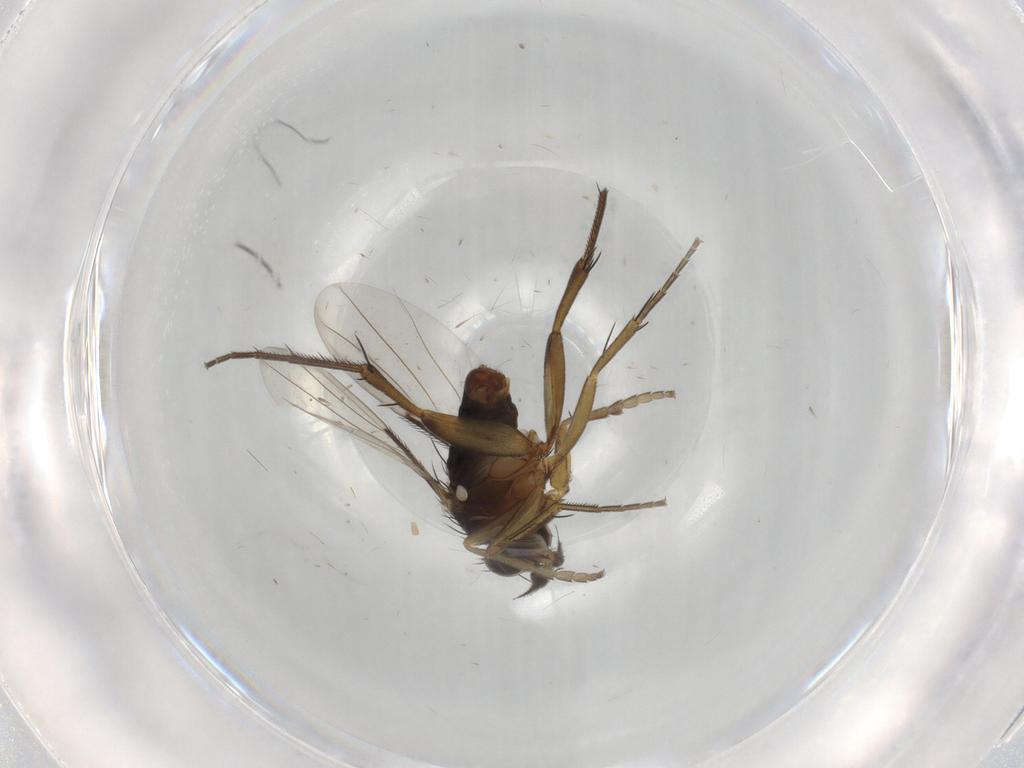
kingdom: Animalia
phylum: Arthropoda
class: Insecta
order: Diptera
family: Phoridae
